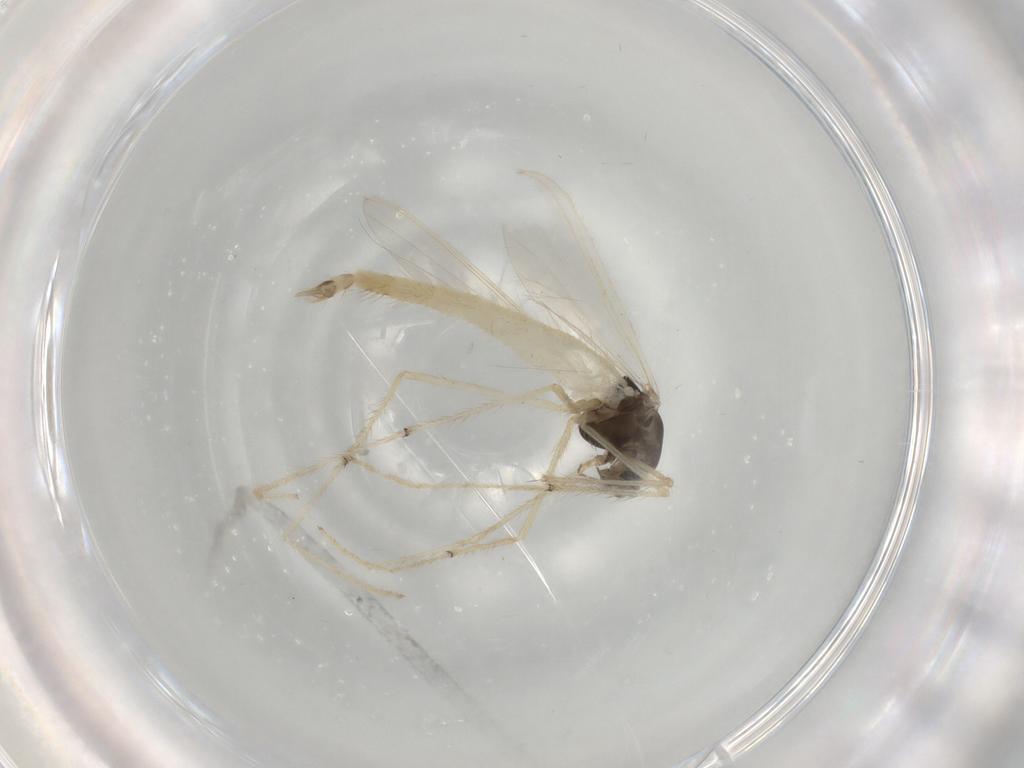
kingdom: Animalia
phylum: Arthropoda
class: Insecta
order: Diptera
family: Chironomidae
